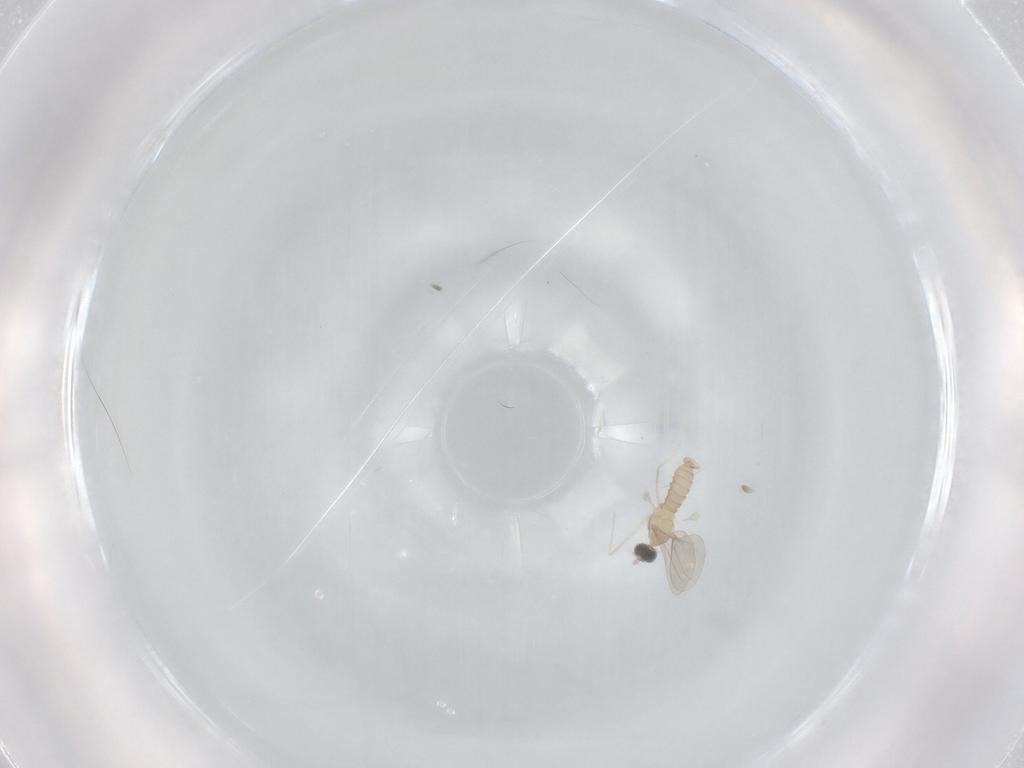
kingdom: Animalia
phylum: Arthropoda
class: Insecta
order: Diptera
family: Cecidomyiidae
